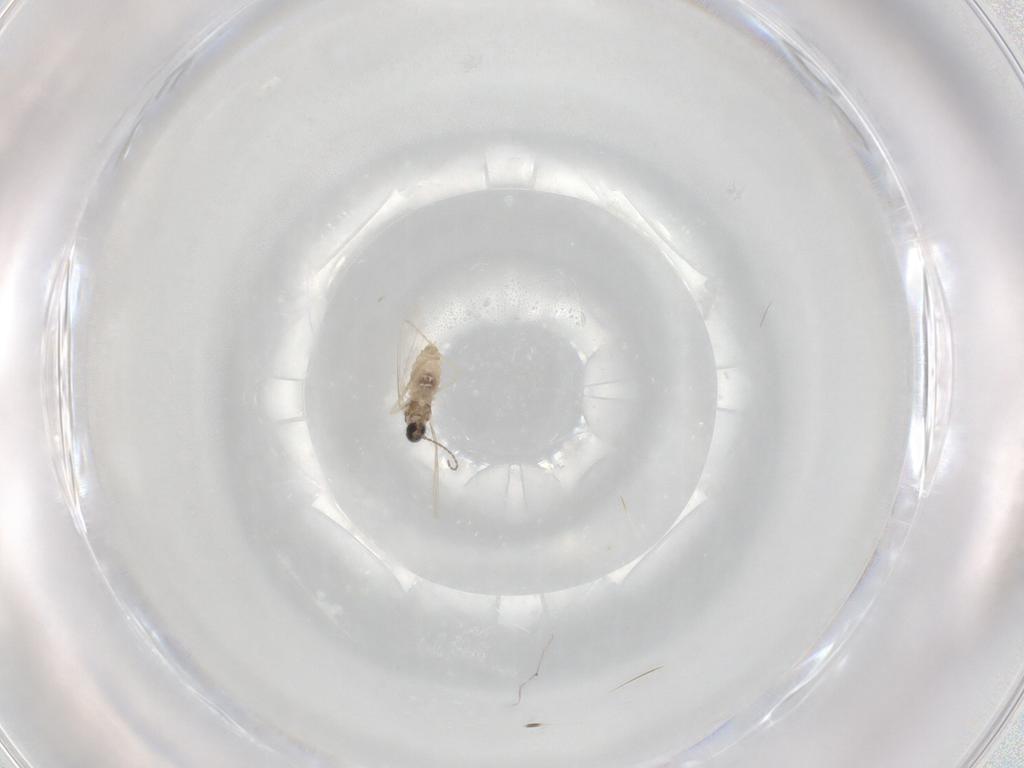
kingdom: Animalia
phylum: Arthropoda
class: Insecta
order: Diptera
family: Cecidomyiidae
